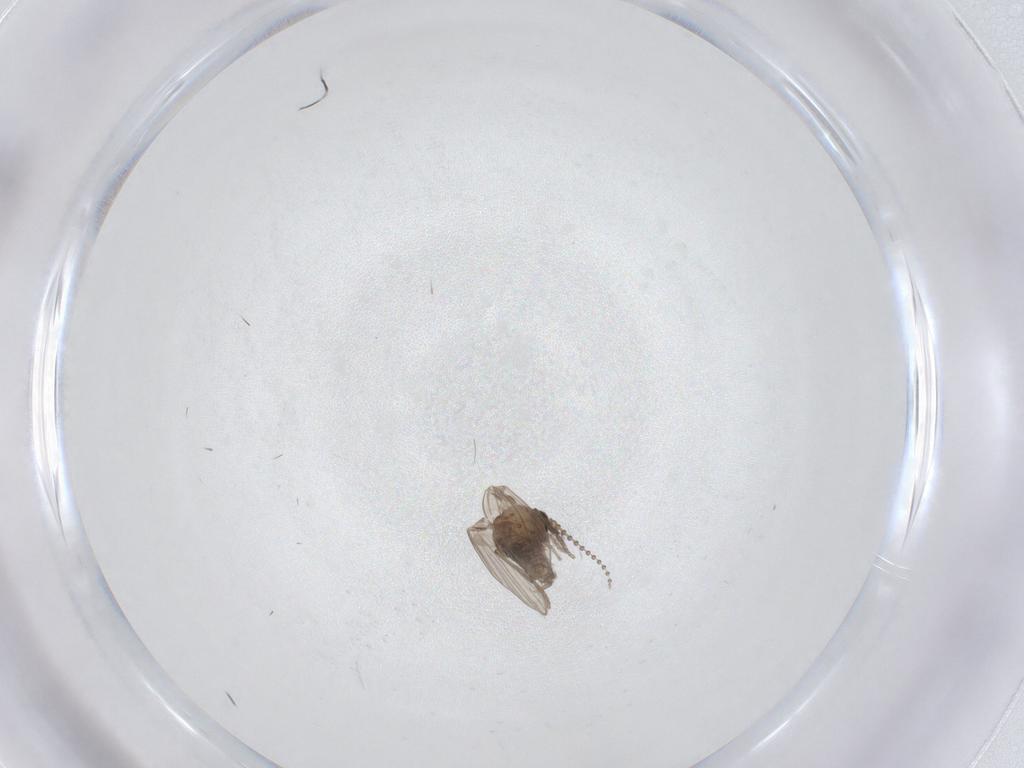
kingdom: Animalia
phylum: Arthropoda
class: Insecta
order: Diptera
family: Psychodidae
